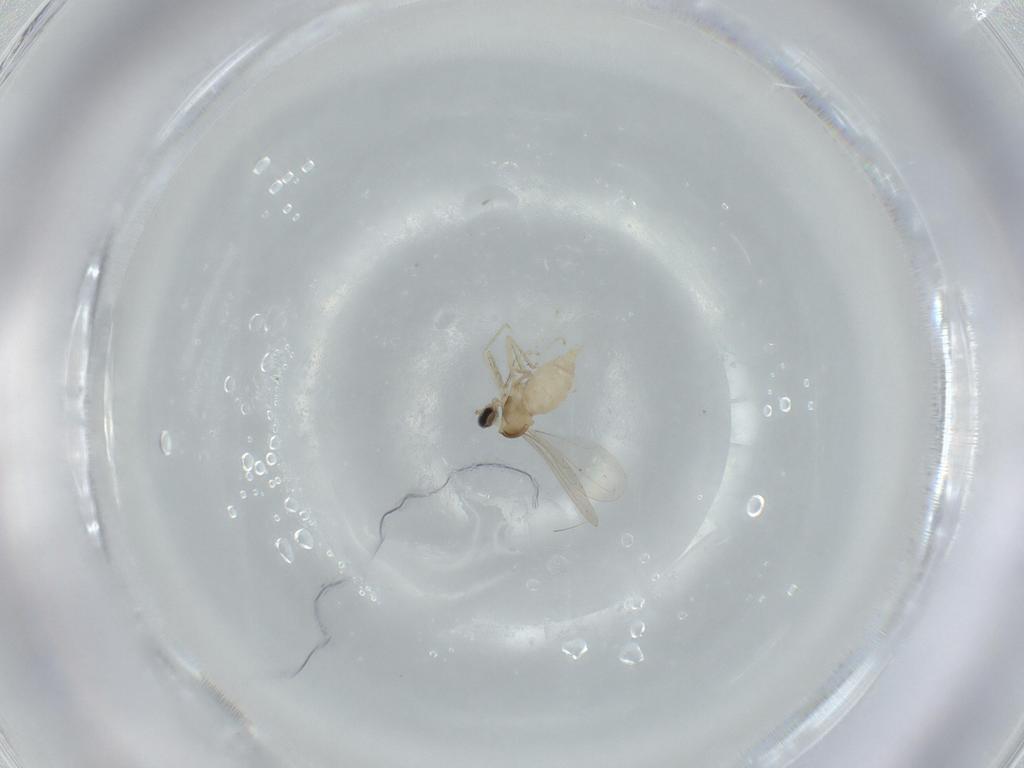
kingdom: Animalia
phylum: Arthropoda
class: Insecta
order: Diptera
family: Cecidomyiidae
